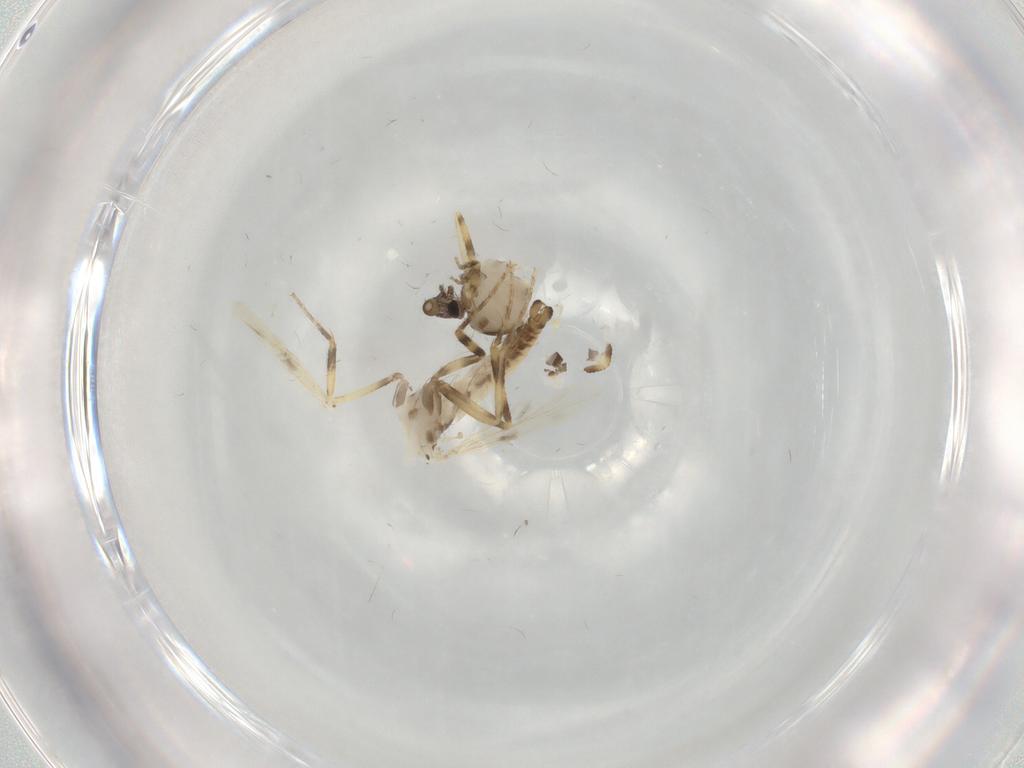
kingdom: Animalia
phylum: Arthropoda
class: Insecta
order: Diptera
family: Ceratopogonidae
